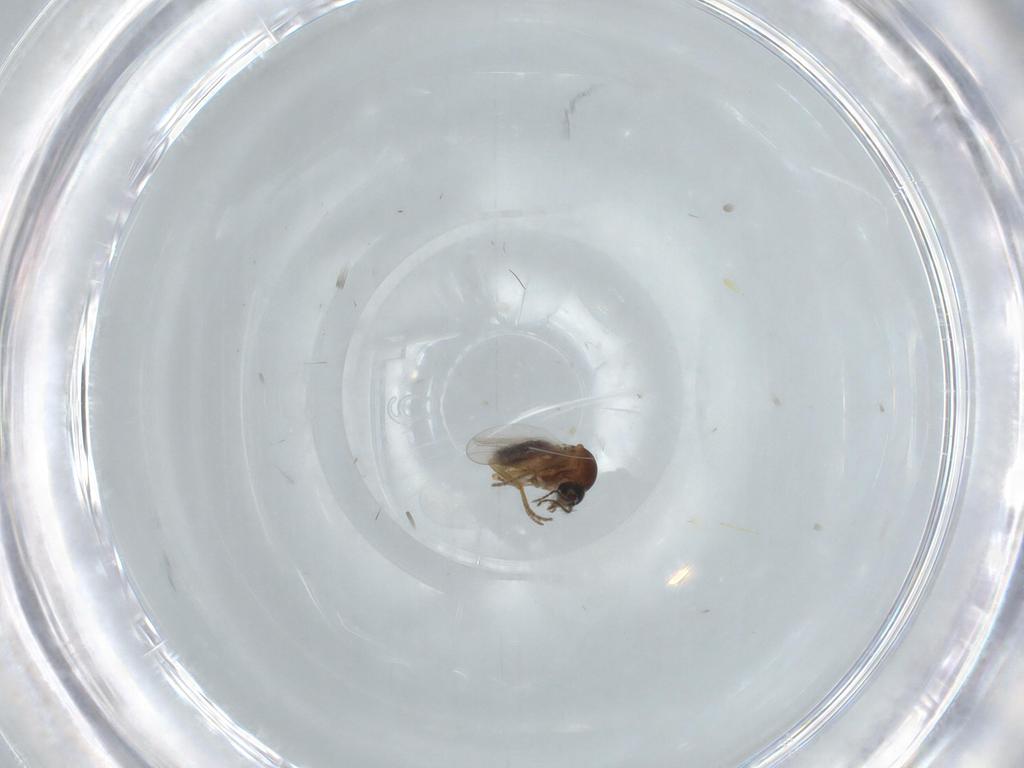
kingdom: Animalia
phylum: Arthropoda
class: Insecta
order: Diptera
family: Chironomidae
